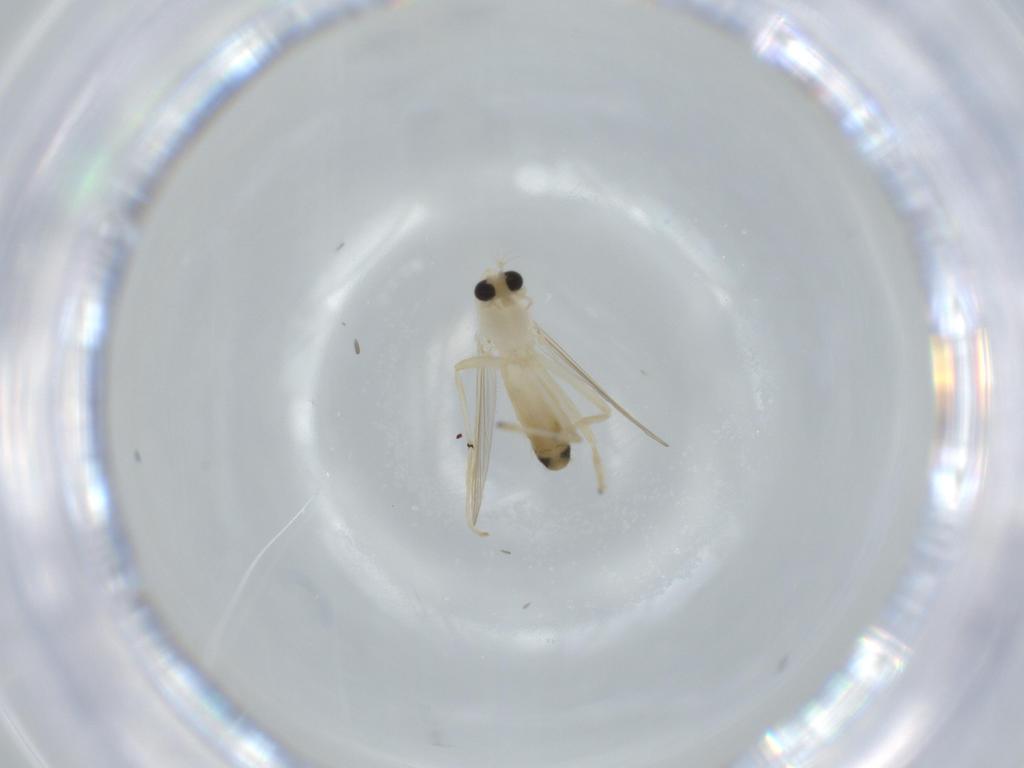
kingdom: Animalia
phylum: Arthropoda
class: Insecta
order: Diptera
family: Chironomidae
